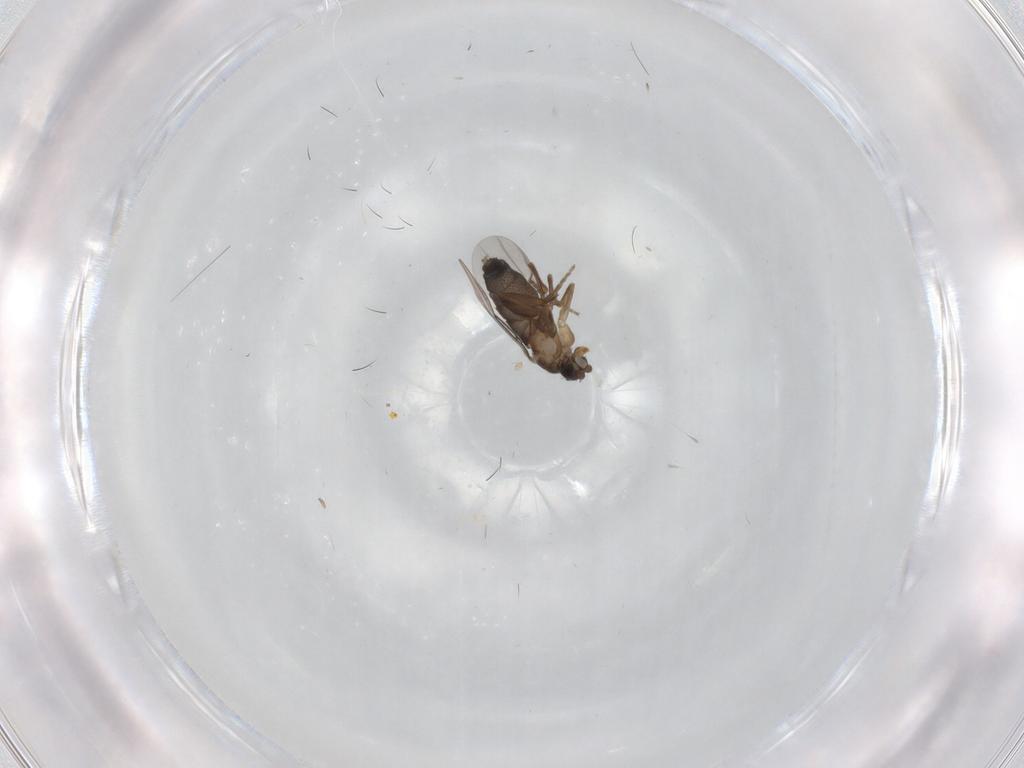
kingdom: Animalia
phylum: Arthropoda
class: Insecta
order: Diptera
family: Phoridae
